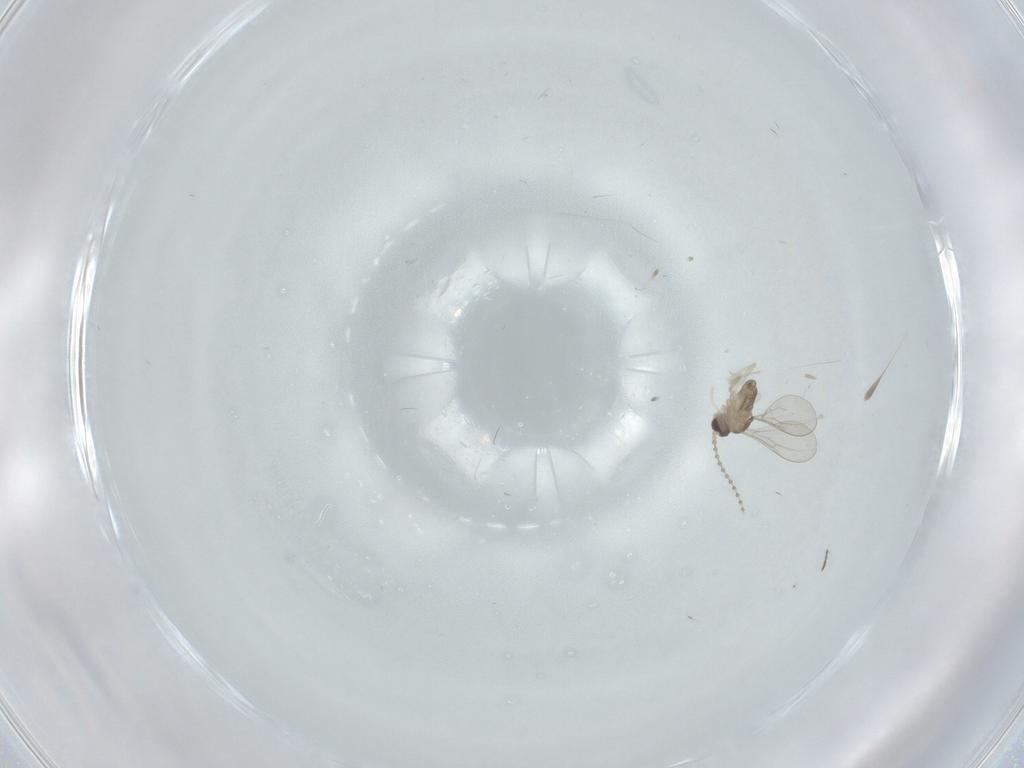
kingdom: Animalia
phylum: Arthropoda
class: Insecta
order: Diptera
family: Cecidomyiidae
